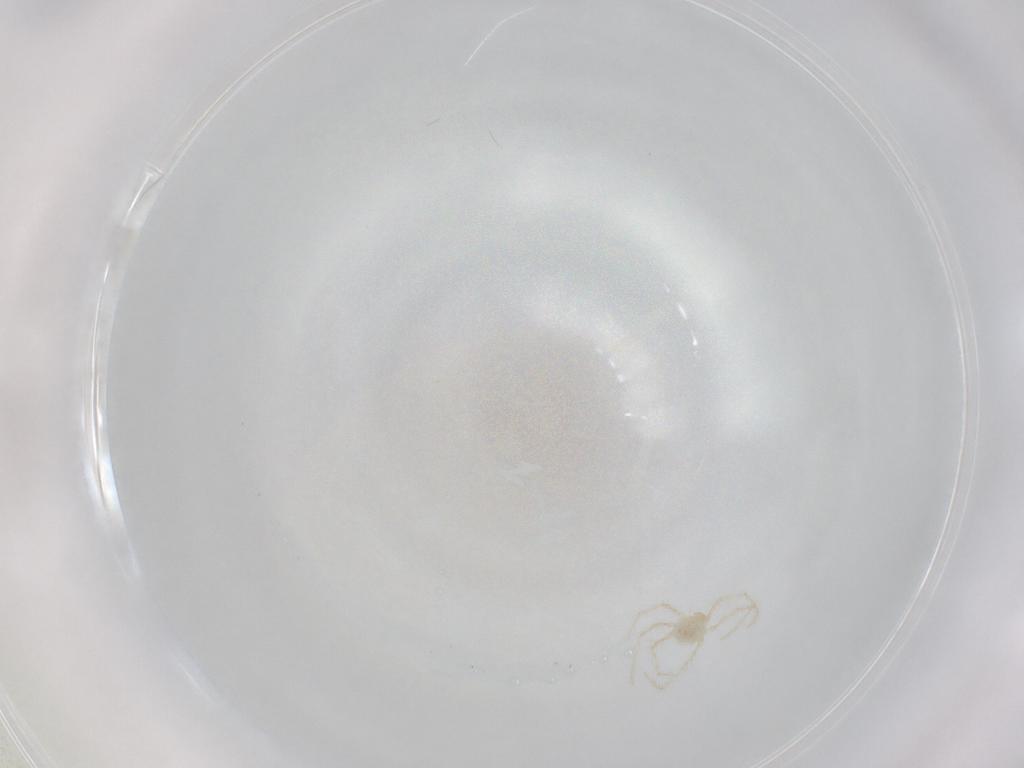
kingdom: Animalia
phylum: Arthropoda
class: Arachnida
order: Trombidiformes
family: Erythraeidae
